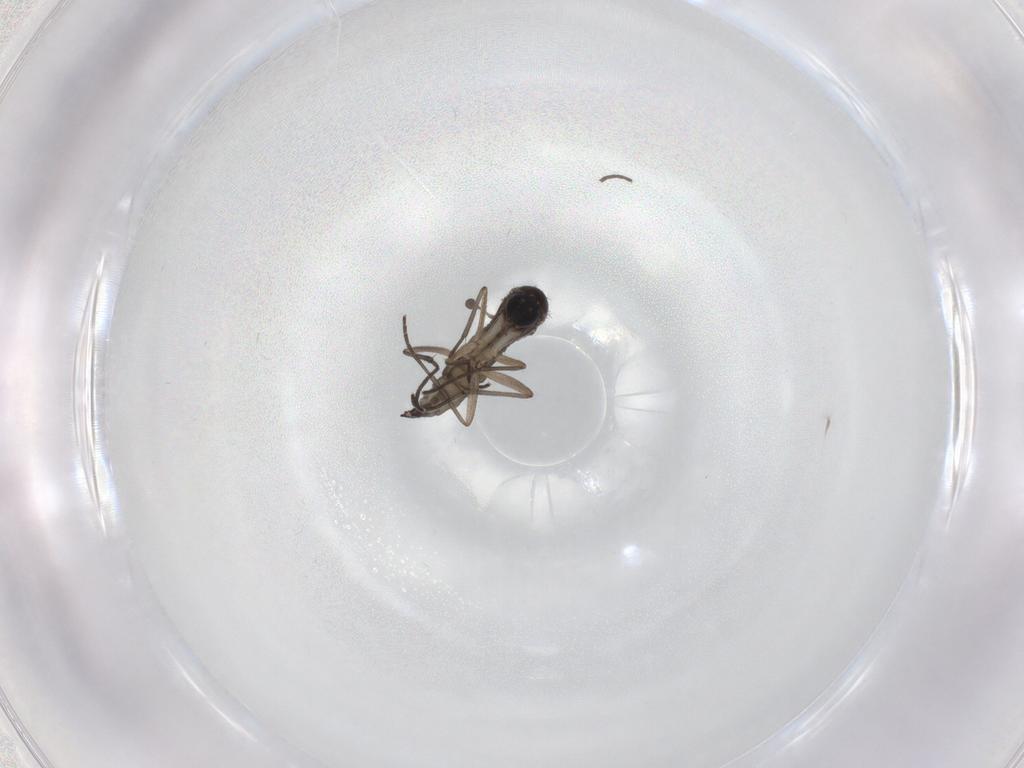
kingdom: Animalia
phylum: Arthropoda
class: Insecta
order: Diptera
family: Sciaridae
